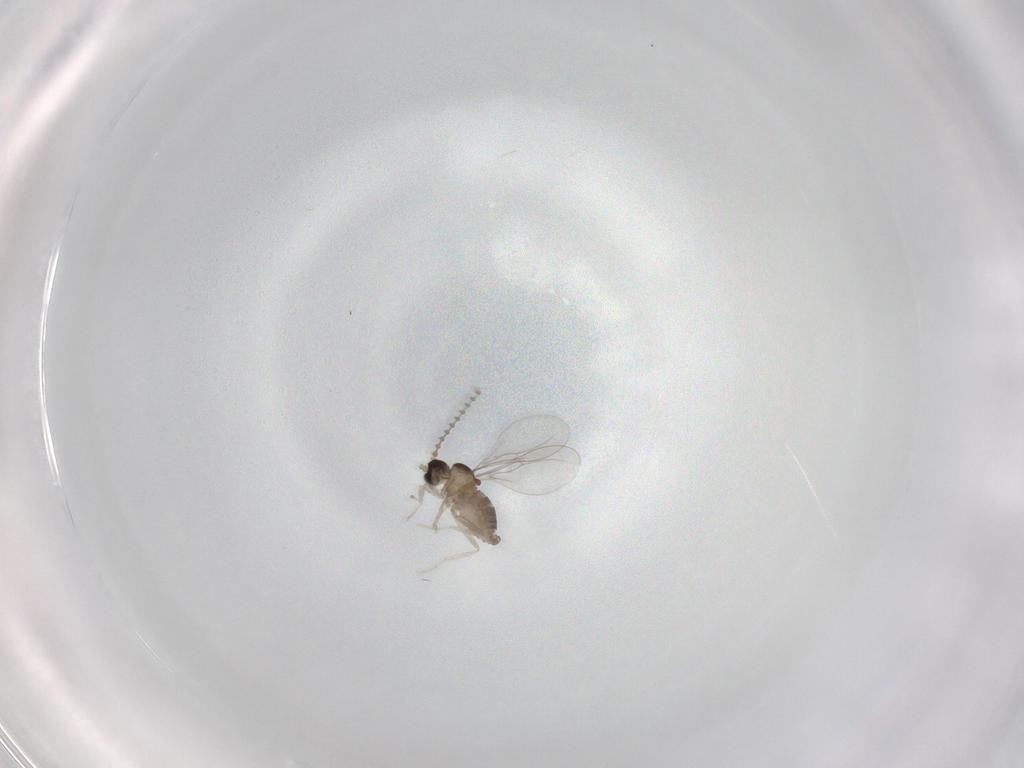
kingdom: Animalia
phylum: Arthropoda
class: Insecta
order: Diptera
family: Cecidomyiidae
